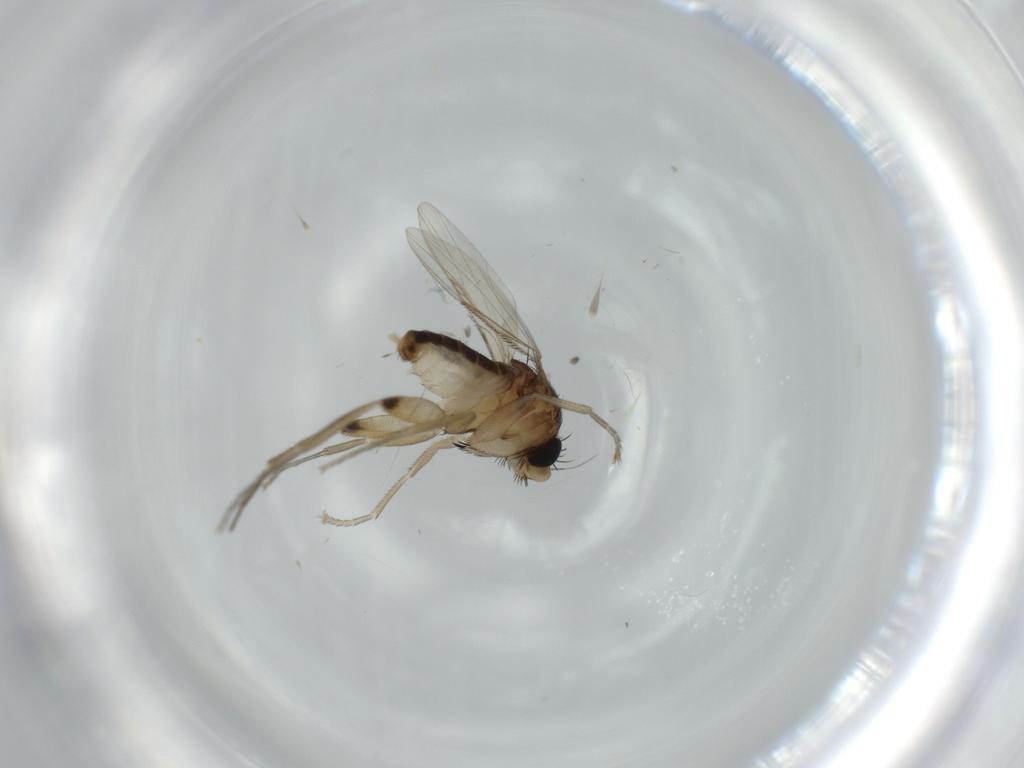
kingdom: Animalia
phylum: Arthropoda
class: Insecta
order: Diptera
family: Phoridae
